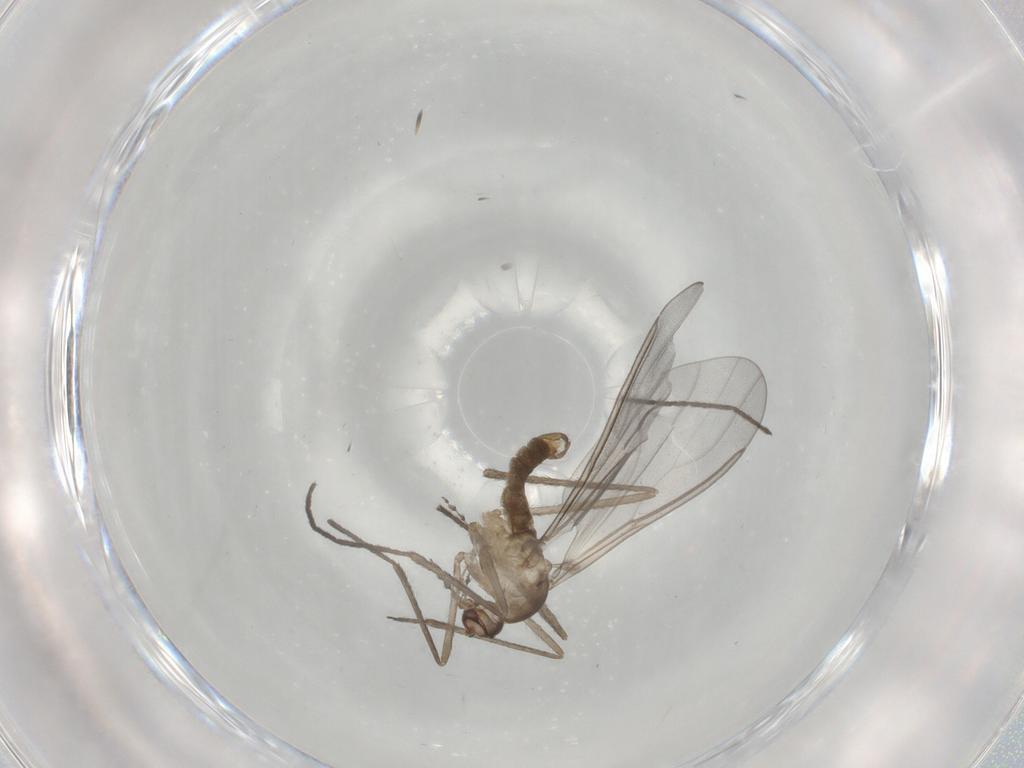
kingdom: Animalia
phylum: Arthropoda
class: Insecta
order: Diptera
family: Cecidomyiidae
